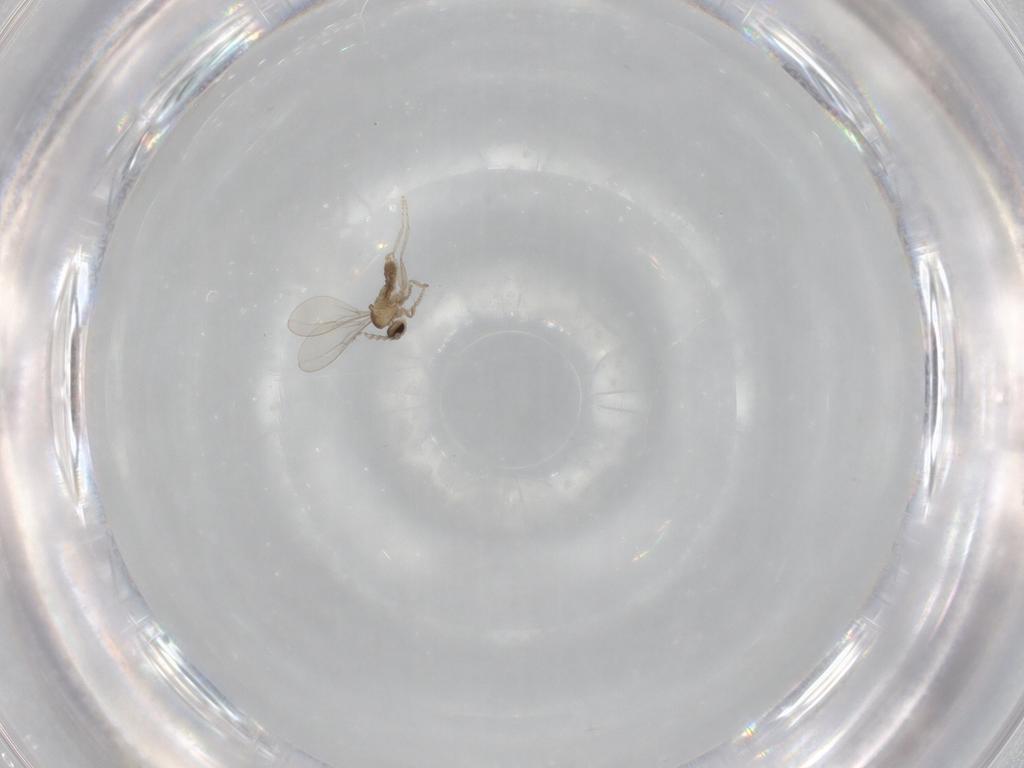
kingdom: Animalia
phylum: Arthropoda
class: Insecta
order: Diptera
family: Cecidomyiidae
